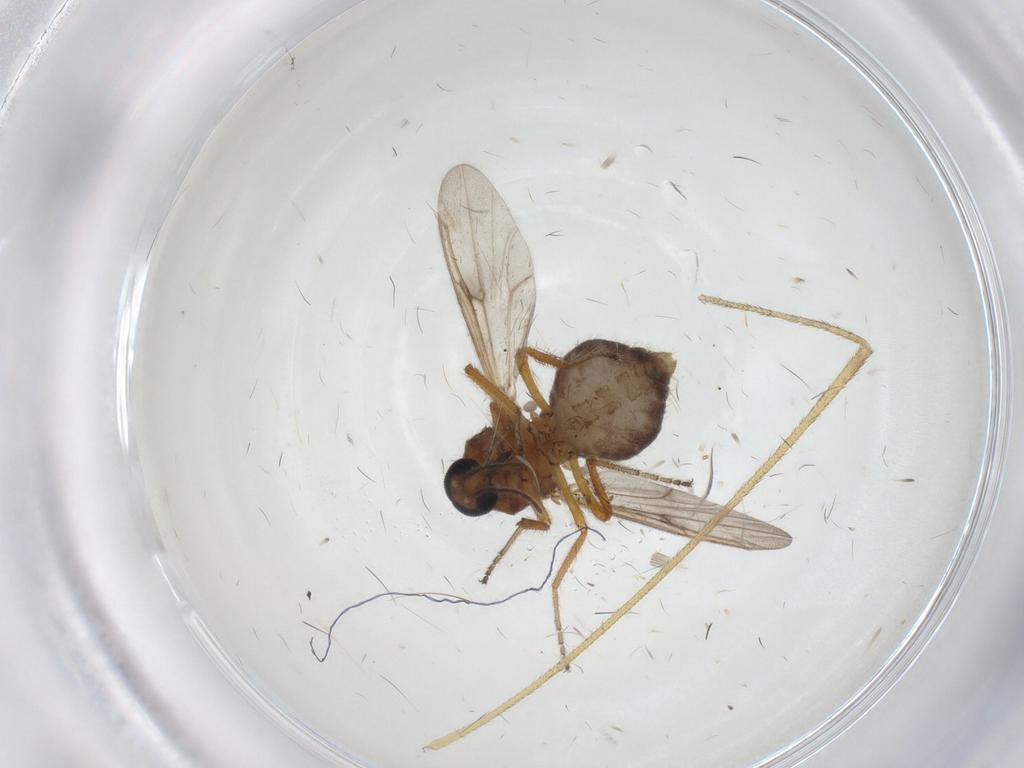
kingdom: Animalia
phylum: Arthropoda
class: Insecta
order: Diptera
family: Ceratopogonidae
